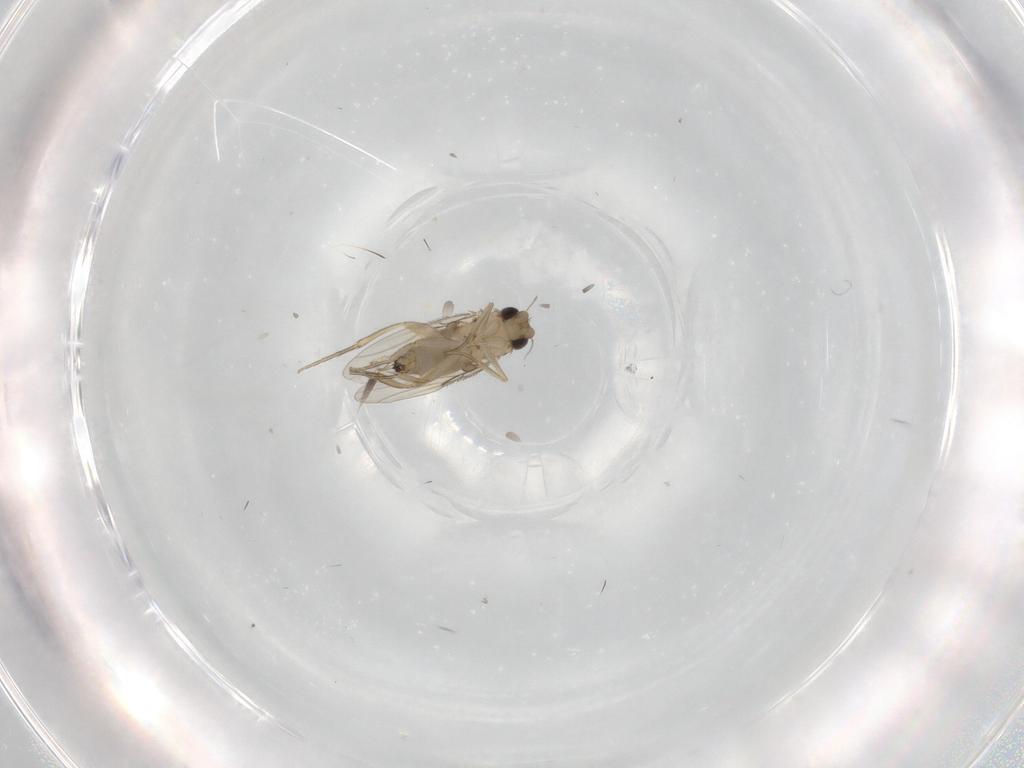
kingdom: Animalia
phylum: Arthropoda
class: Insecta
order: Diptera
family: Phoridae
